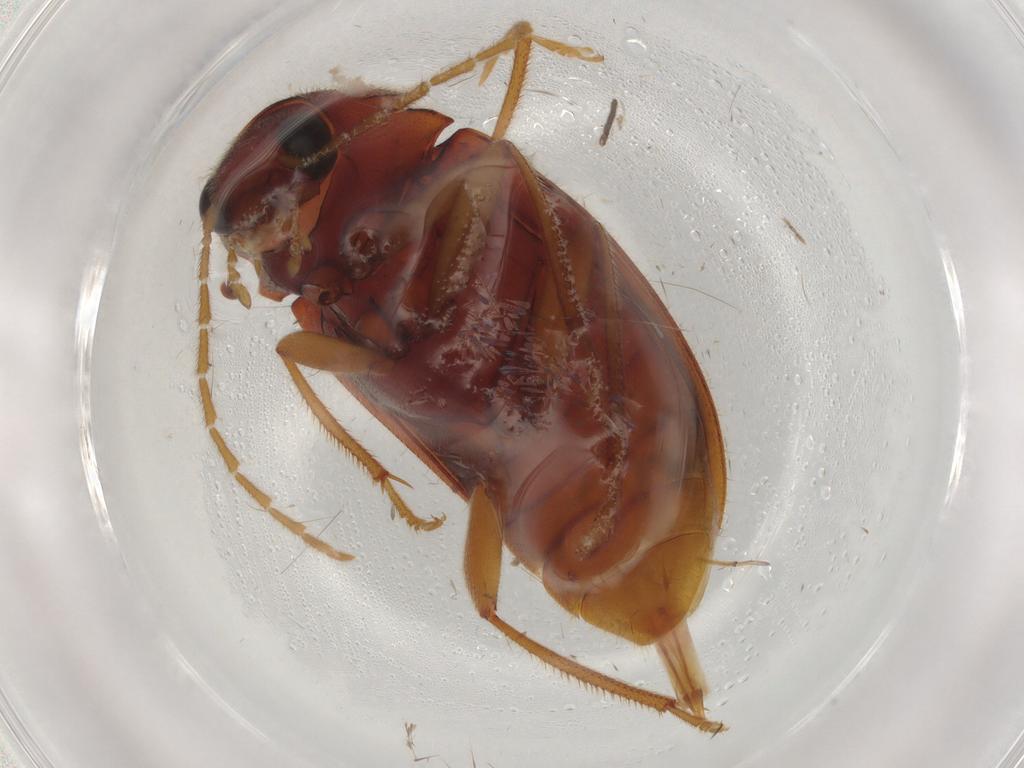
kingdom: Animalia
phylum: Arthropoda
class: Insecta
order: Coleoptera
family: Ptilodactylidae
